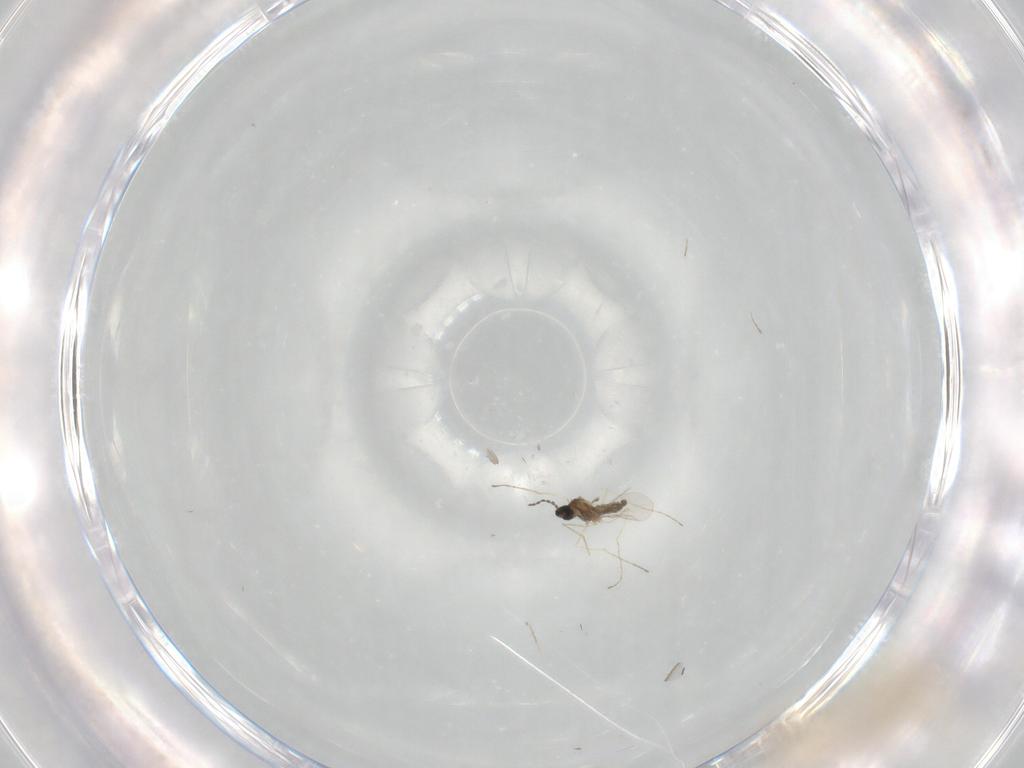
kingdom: Animalia
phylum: Arthropoda
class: Insecta
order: Diptera
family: Cecidomyiidae
